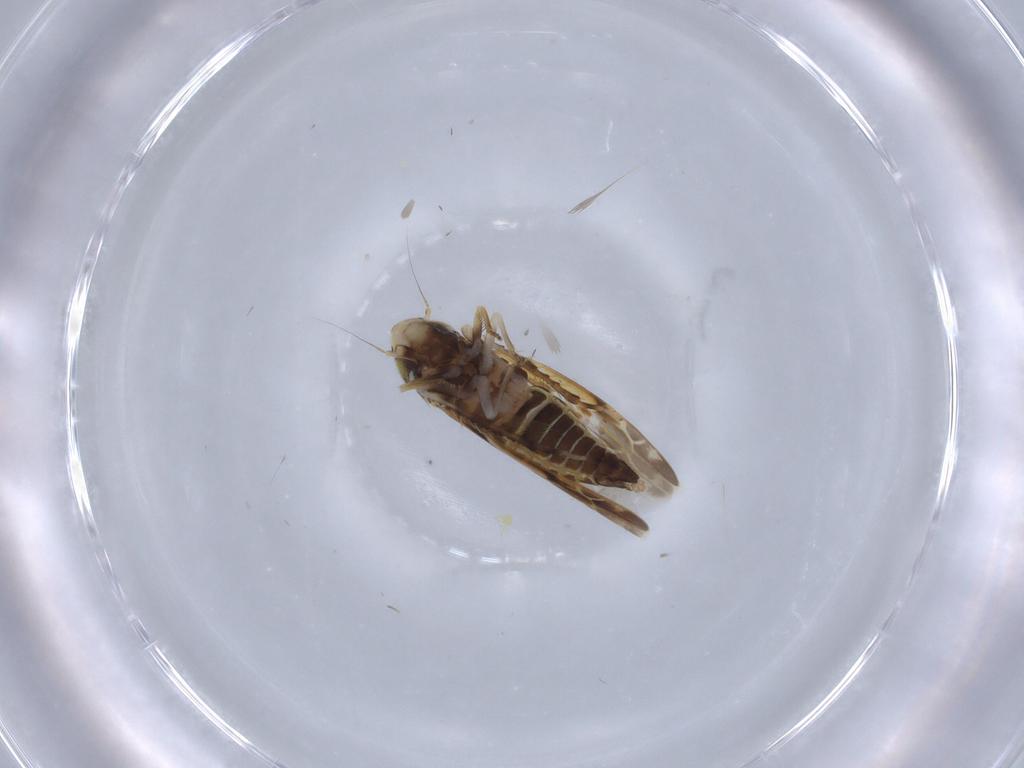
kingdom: Animalia
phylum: Arthropoda
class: Insecta
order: Hemiptera
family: Cicadellidae
